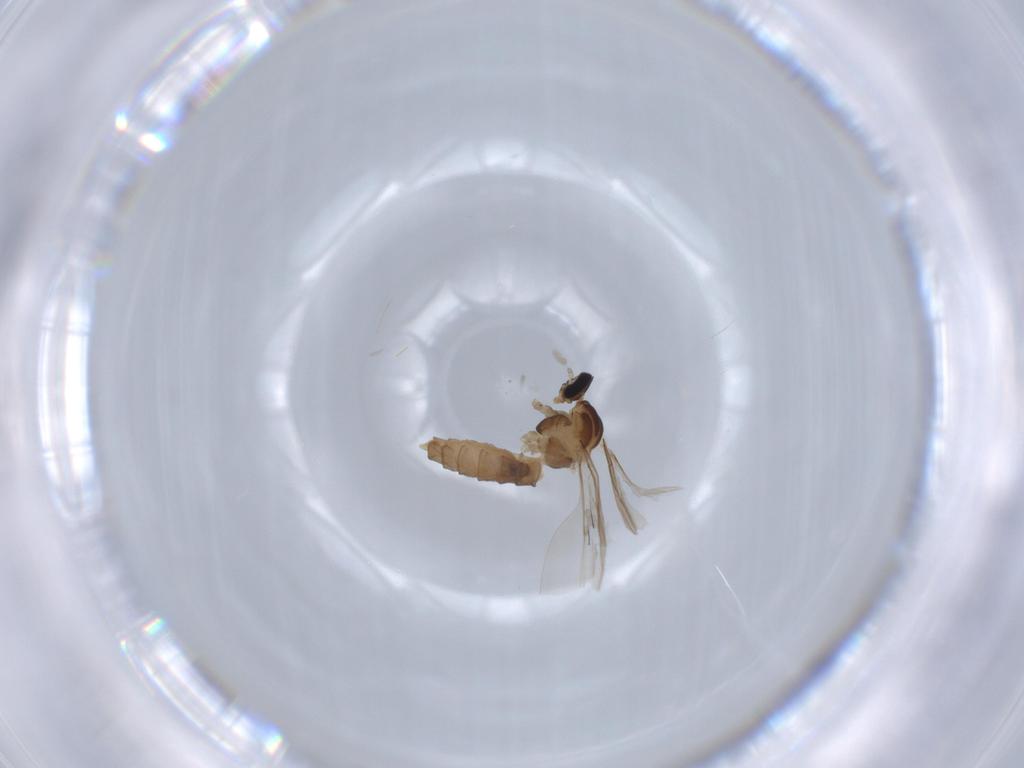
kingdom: Animalia
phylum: Arthropoda
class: Insecta
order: Diptera
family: Cecidomyiidae
